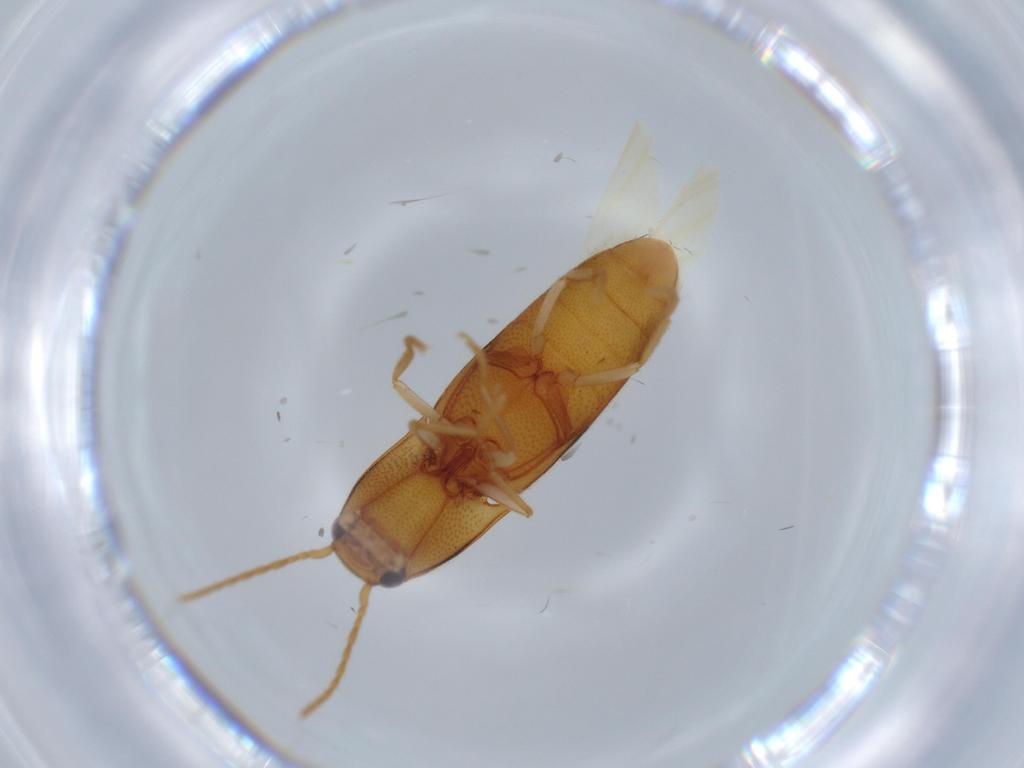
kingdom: Animalia
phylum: Arthropoda
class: Insecta
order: Coleoptera
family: Elateridae
